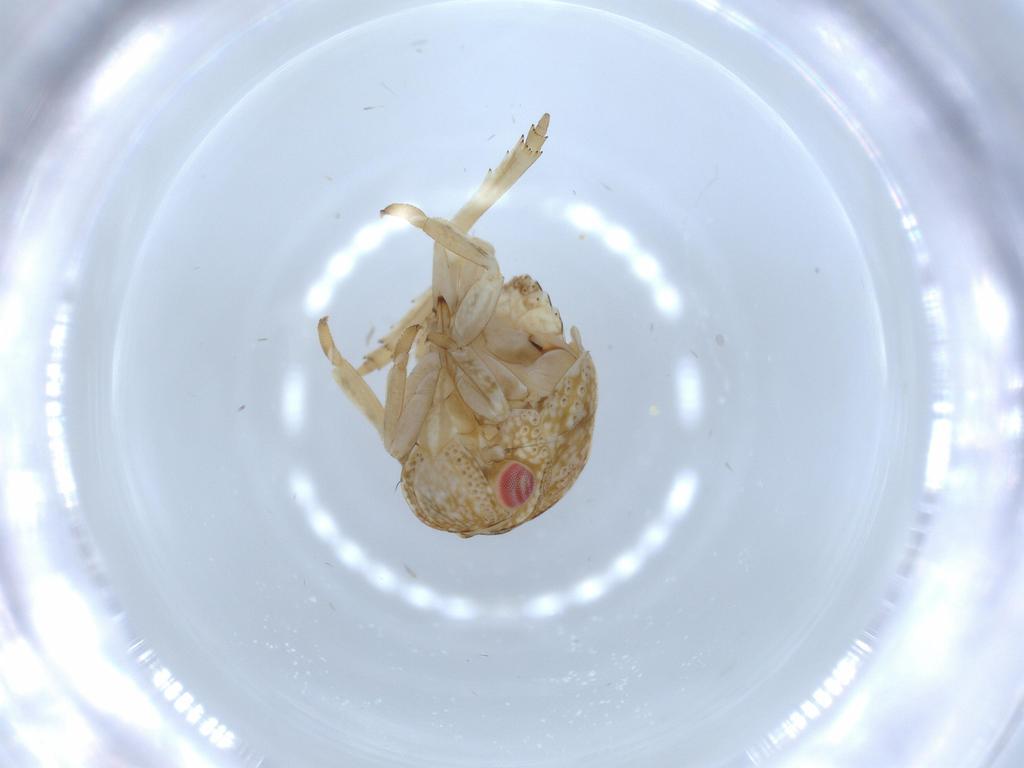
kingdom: Animalia
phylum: Arthropoda
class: Insecta
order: Hemiptera
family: Acanaloniidae
